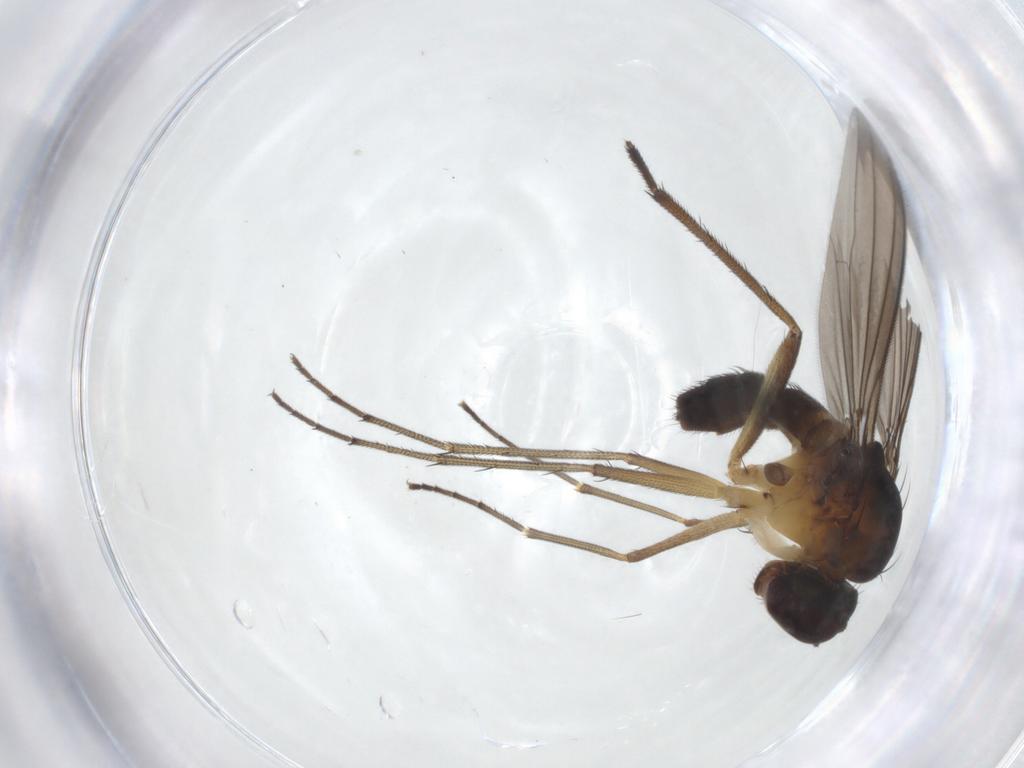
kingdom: Animalia
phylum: Arthropoda
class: Insecta
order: Diptera
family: Dolichopodidae
